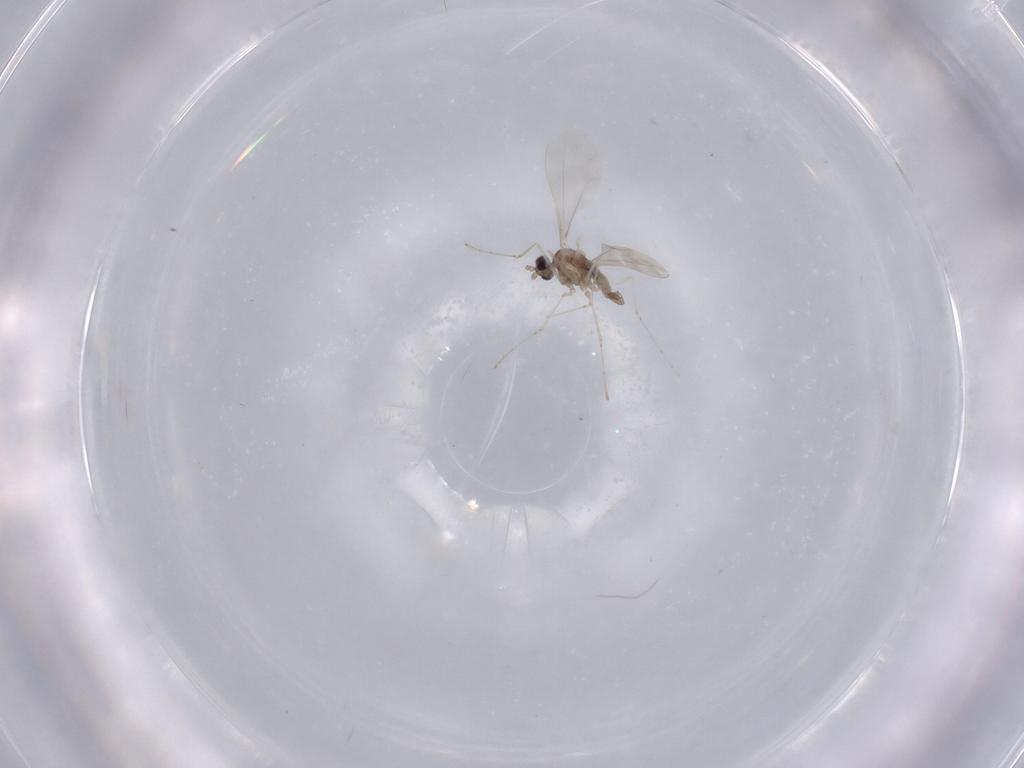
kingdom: Animalia
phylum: Arthropoda
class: Insecta
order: Diptera
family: Cecidomyiidae
